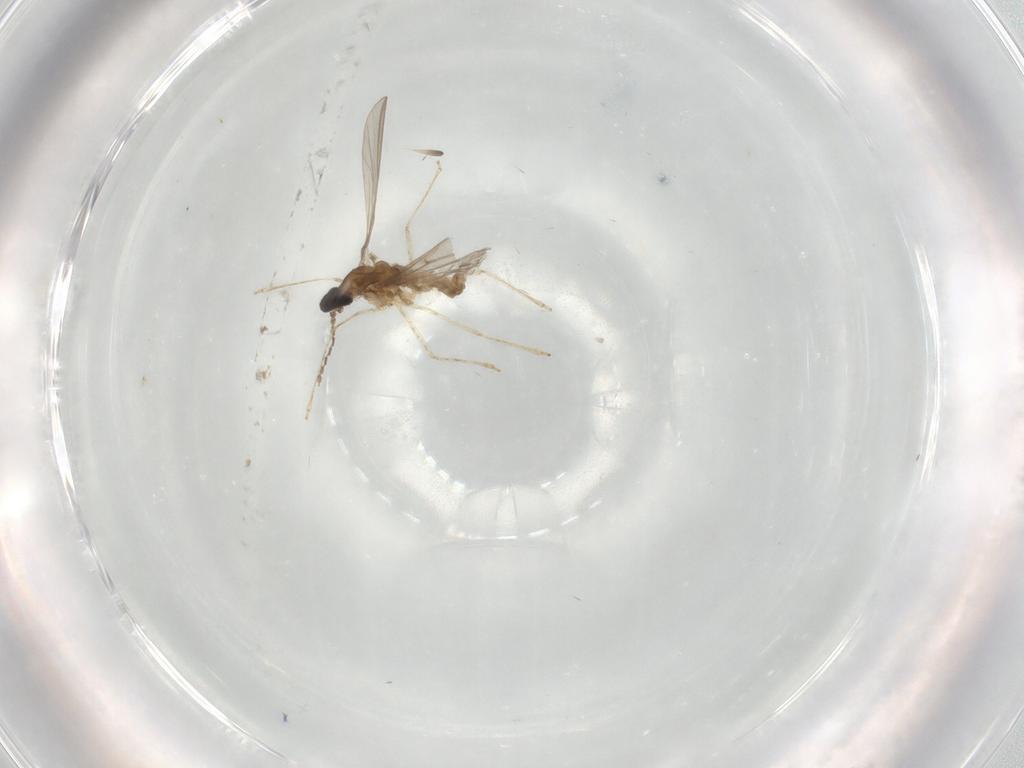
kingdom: Animalia
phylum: Arthropoda
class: Insecta
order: Diptera
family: Cecidomyiidae
